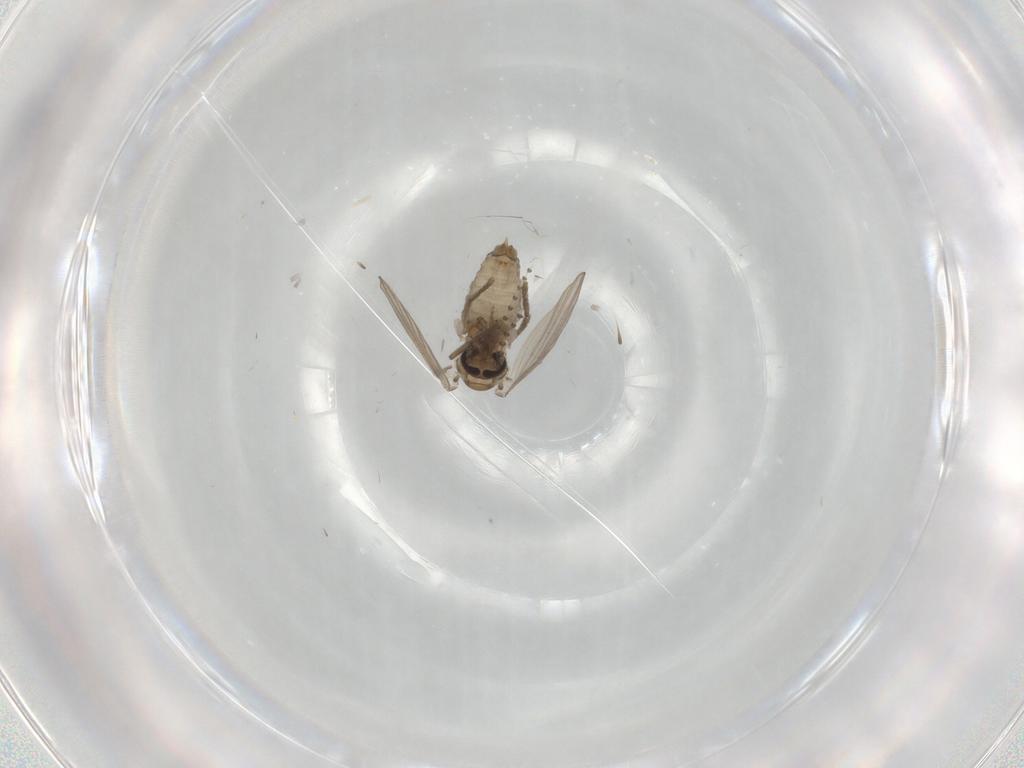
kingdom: Animalia
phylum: Arthropoda
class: Insecta
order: Diptera
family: Psychodidae
